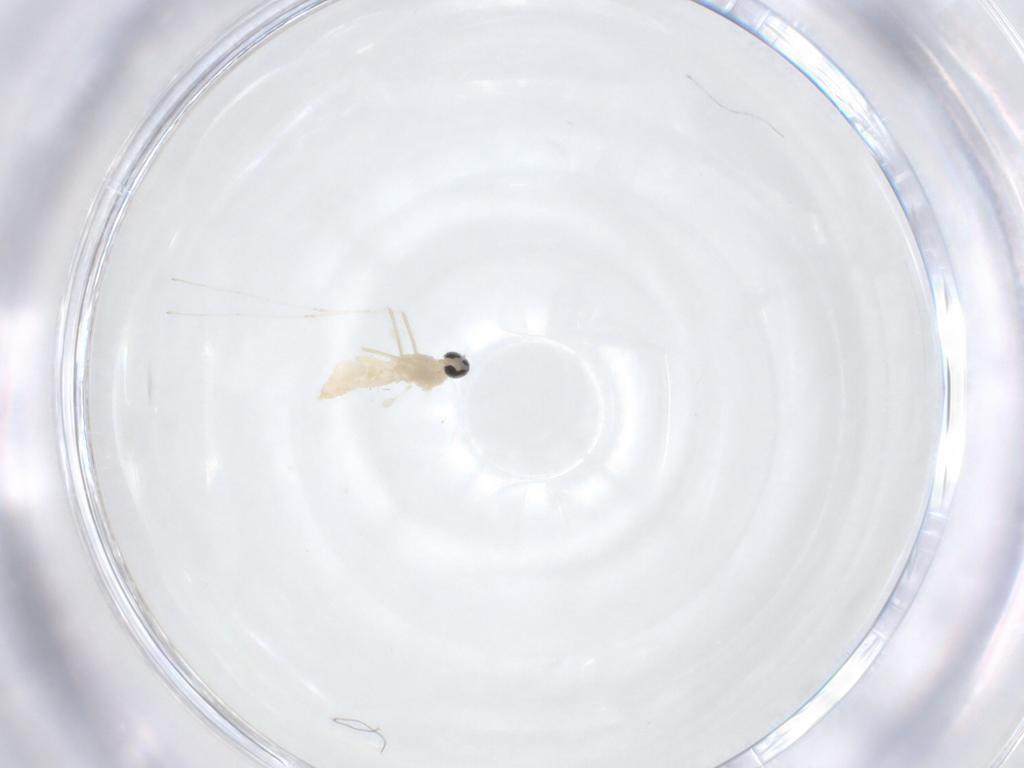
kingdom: Animalia
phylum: Arthropoda
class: Insecta
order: Diptera
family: Cecidomyiidae
